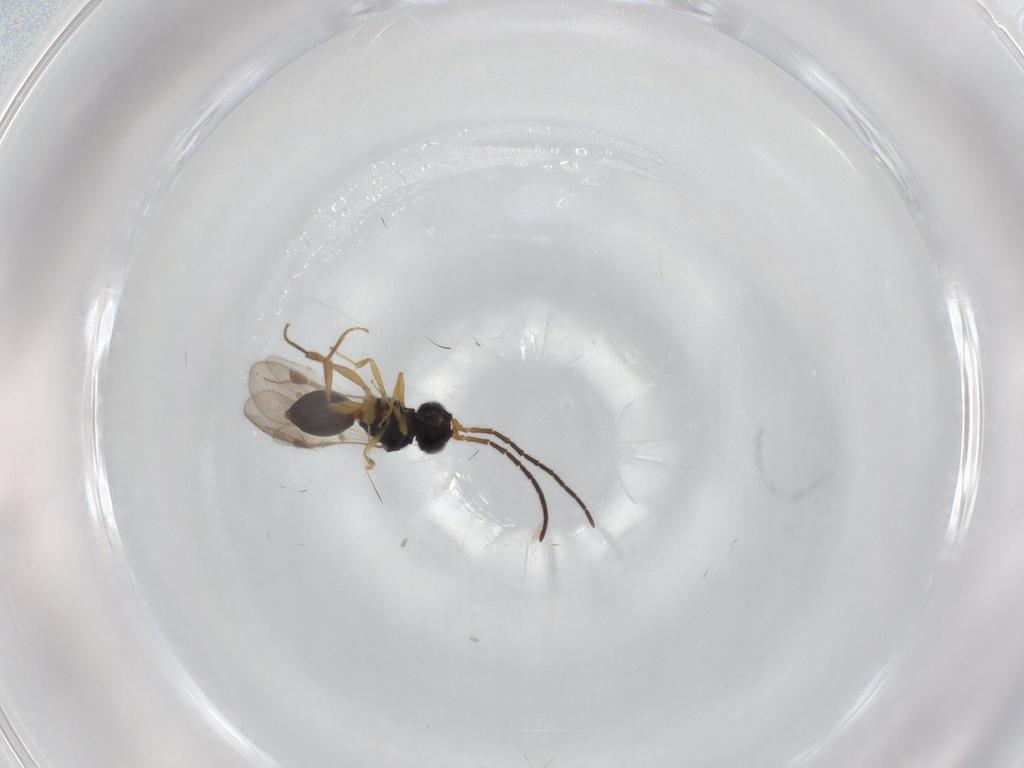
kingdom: Animalia
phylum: Arthropoda
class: Insecta
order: Hymenoptera
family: Megaspilidae
